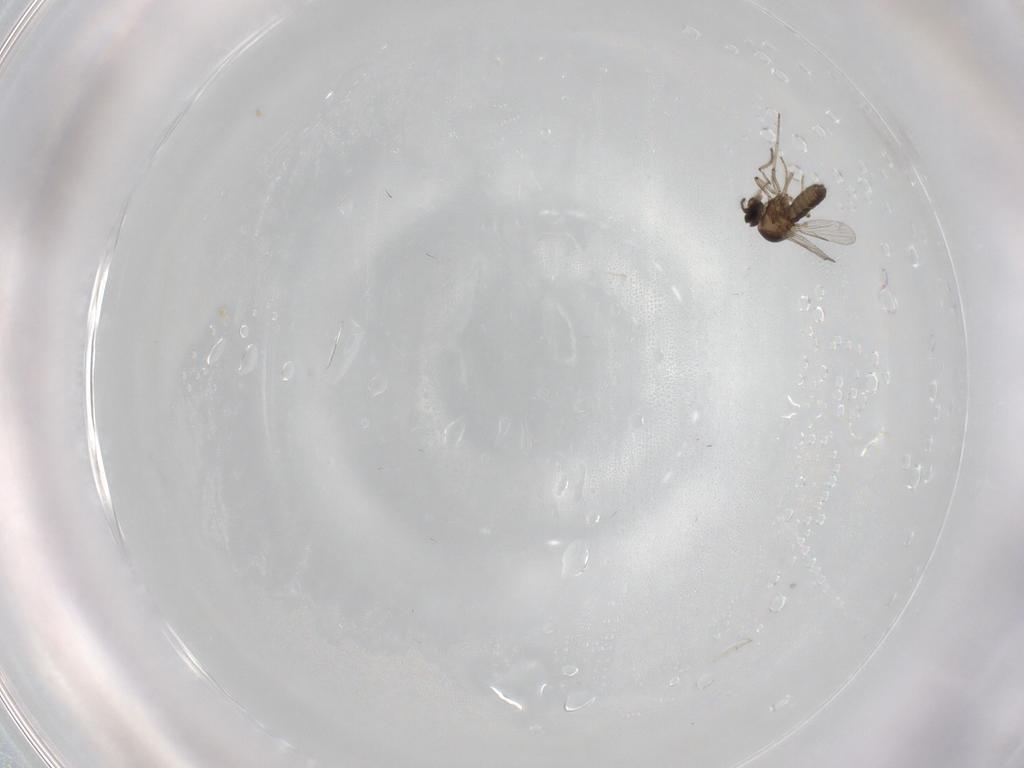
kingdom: Animalia
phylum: Arthropoda
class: Insecta
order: Diptera
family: Ceratopogonidae
